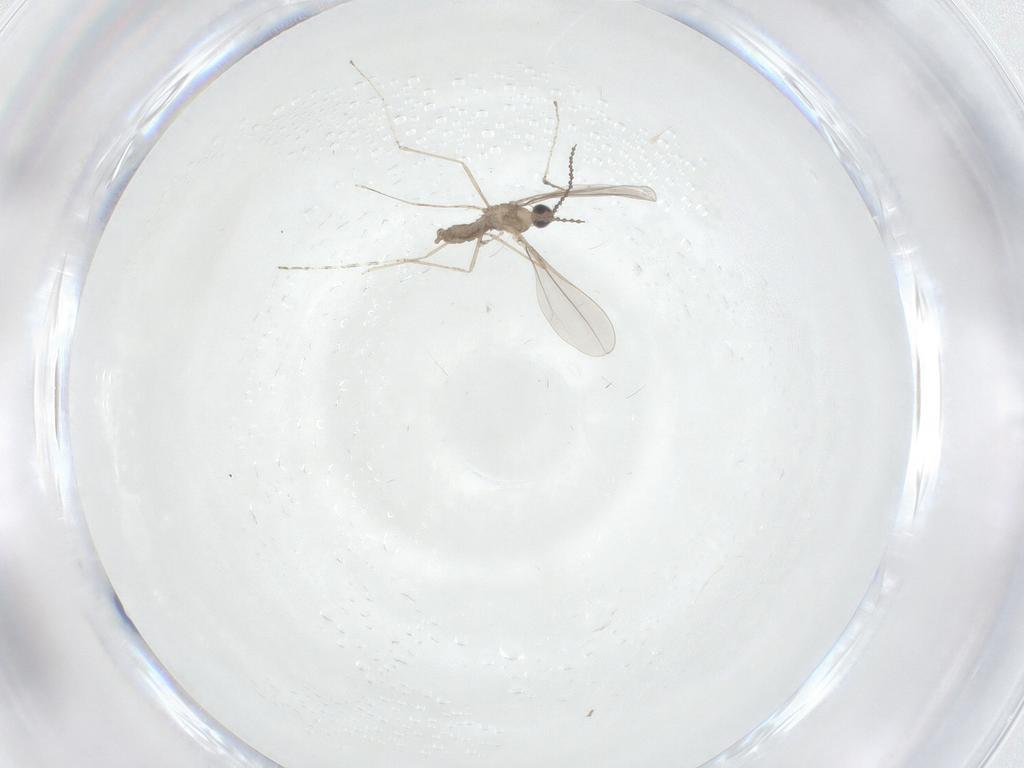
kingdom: Animalia
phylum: Arthropoda
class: Insecta
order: Diptera
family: Cecidomyiidae
